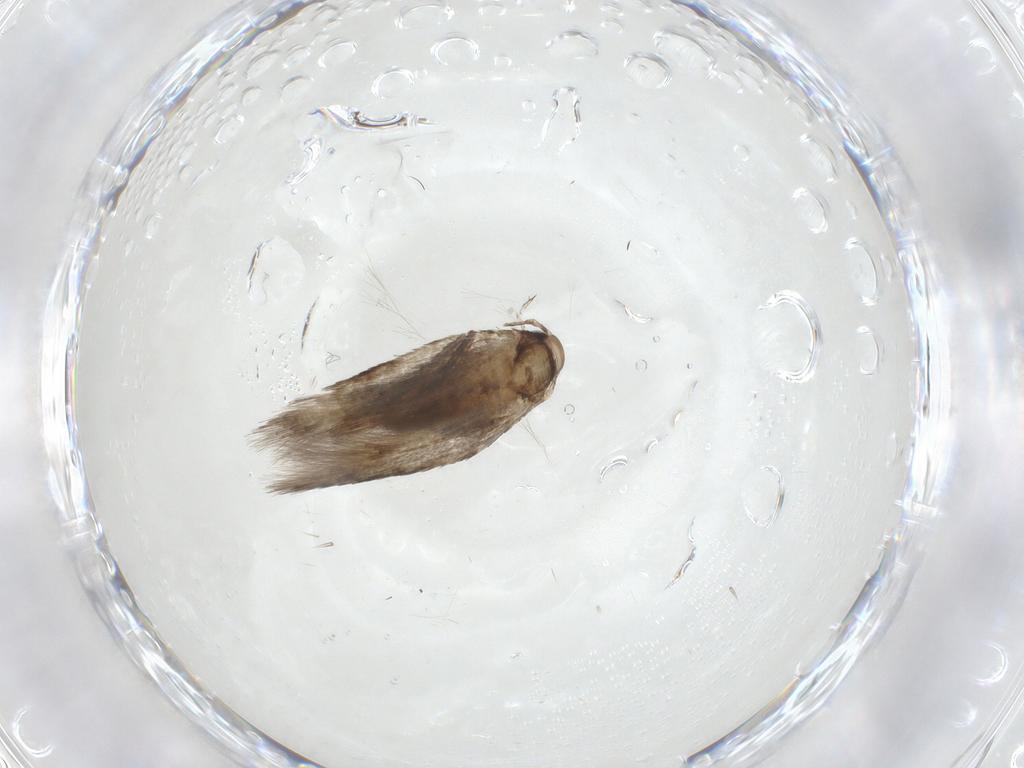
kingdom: Animalia
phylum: Arthropoda
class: Insecta
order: Lepidoptera
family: Cosmopterigidae
